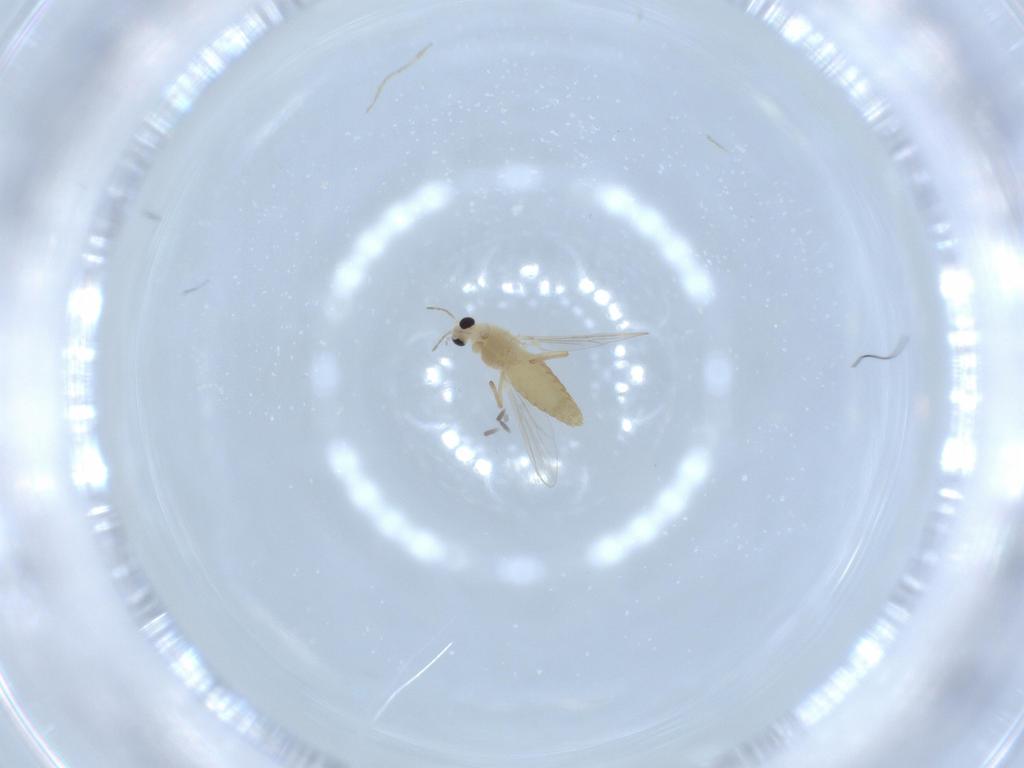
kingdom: Animalia
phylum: Arthropoda
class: Insecta
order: Diptera
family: Chironomidae
